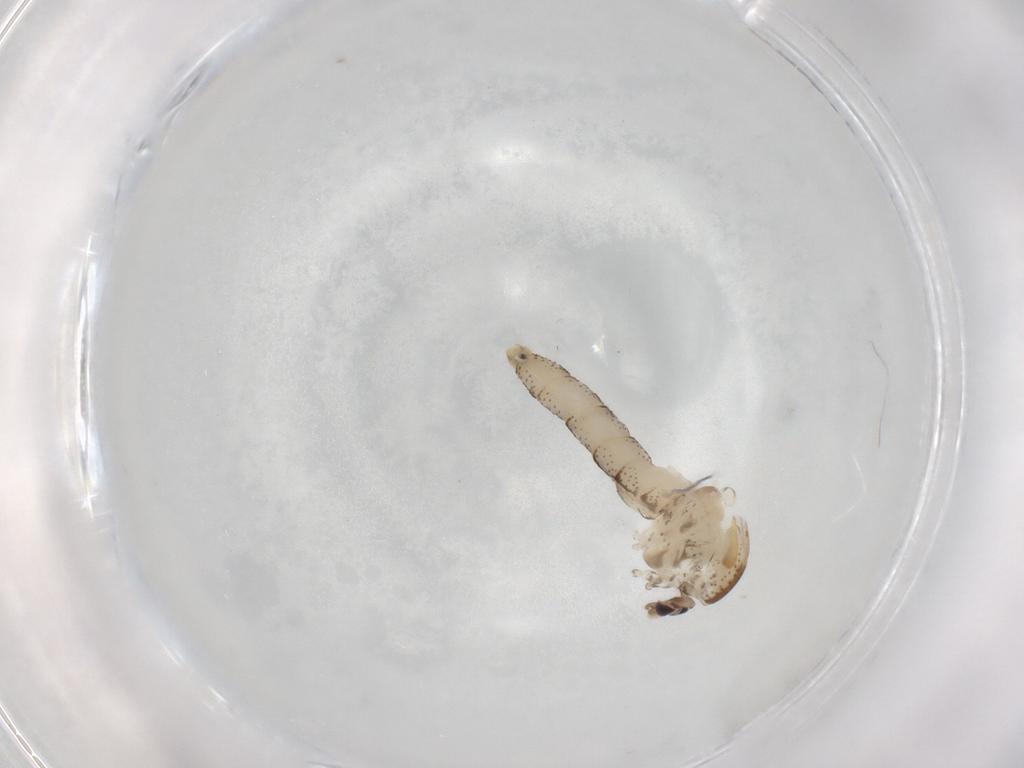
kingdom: Animalia
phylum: Arthropoda
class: Insecta
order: Diptera
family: Chaoboridae
